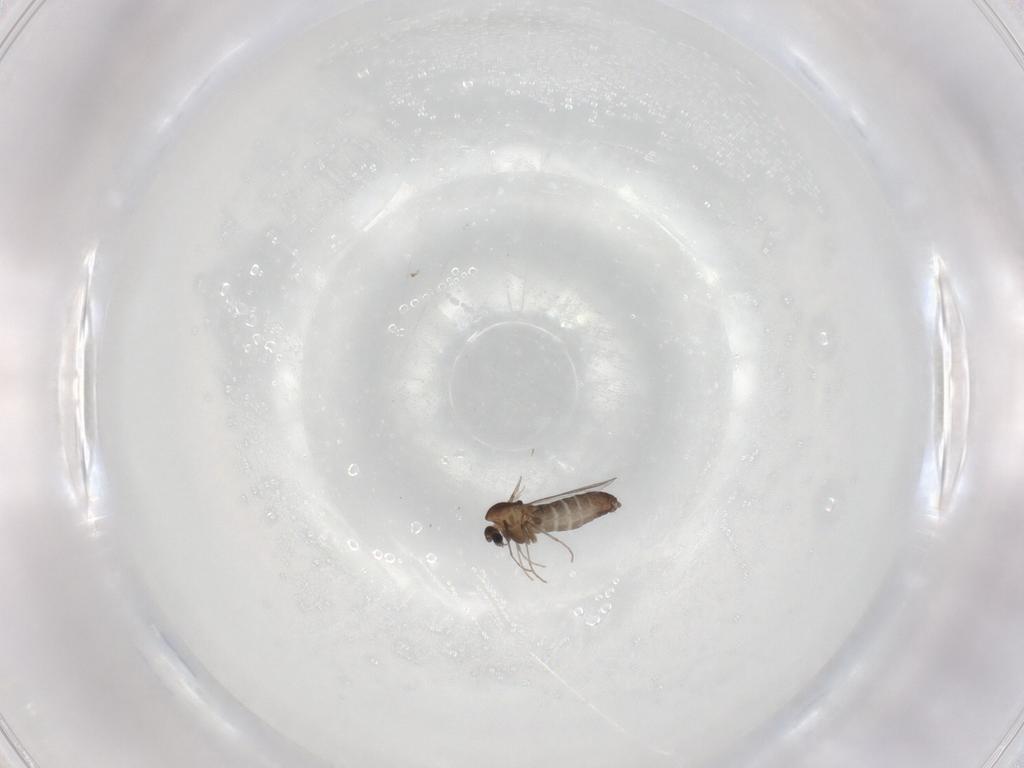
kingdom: Animalia
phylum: Arthropoda
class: Insecta
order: Diptera
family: Chironomidae
